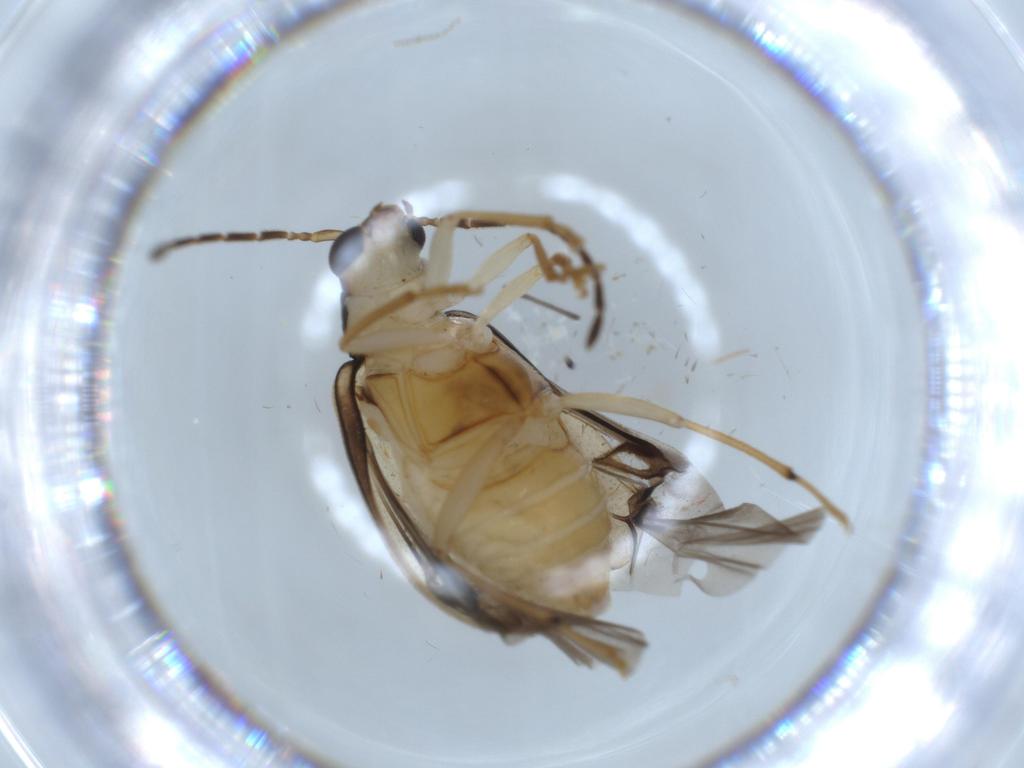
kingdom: Animalia
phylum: Arthropoda
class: Insecta
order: Coleoptera
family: Chrysomelidae
